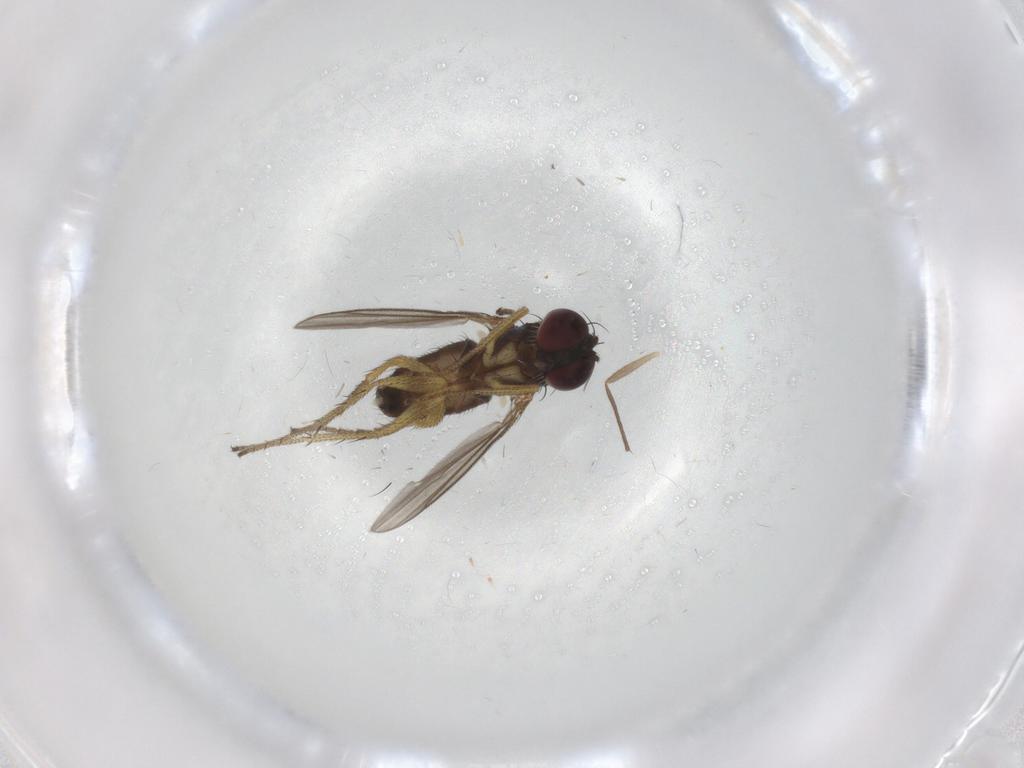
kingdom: Animalia
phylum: Arthropoda
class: Insecta
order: Diptera
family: Dolichopodidae
